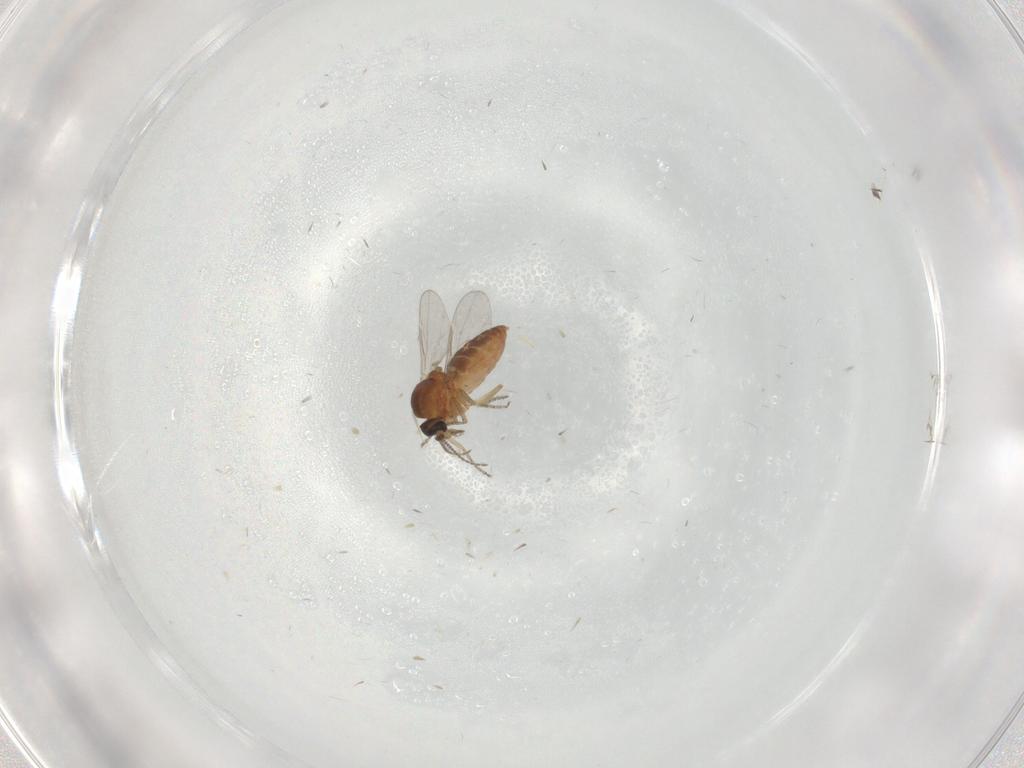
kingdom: Animalia
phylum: Arthropoda
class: Insecta
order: Diptera
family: Ceratopogonidae
